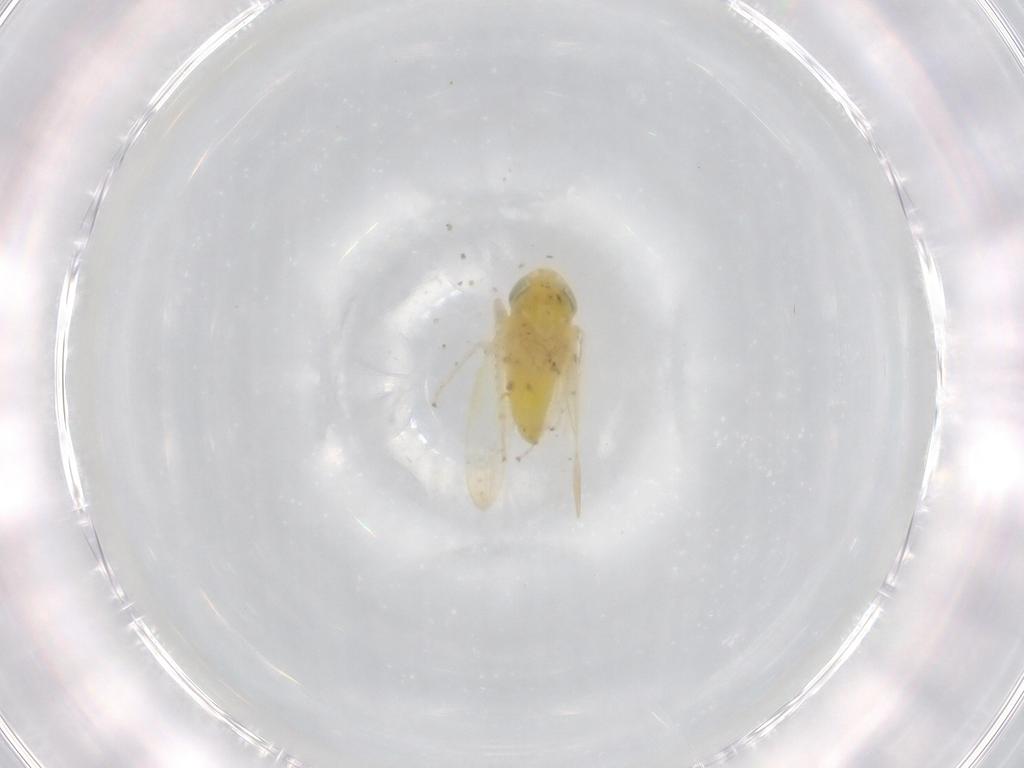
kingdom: Animalia
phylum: Arthropoda
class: Insecta
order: Hemiptera
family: Cicadellidae
